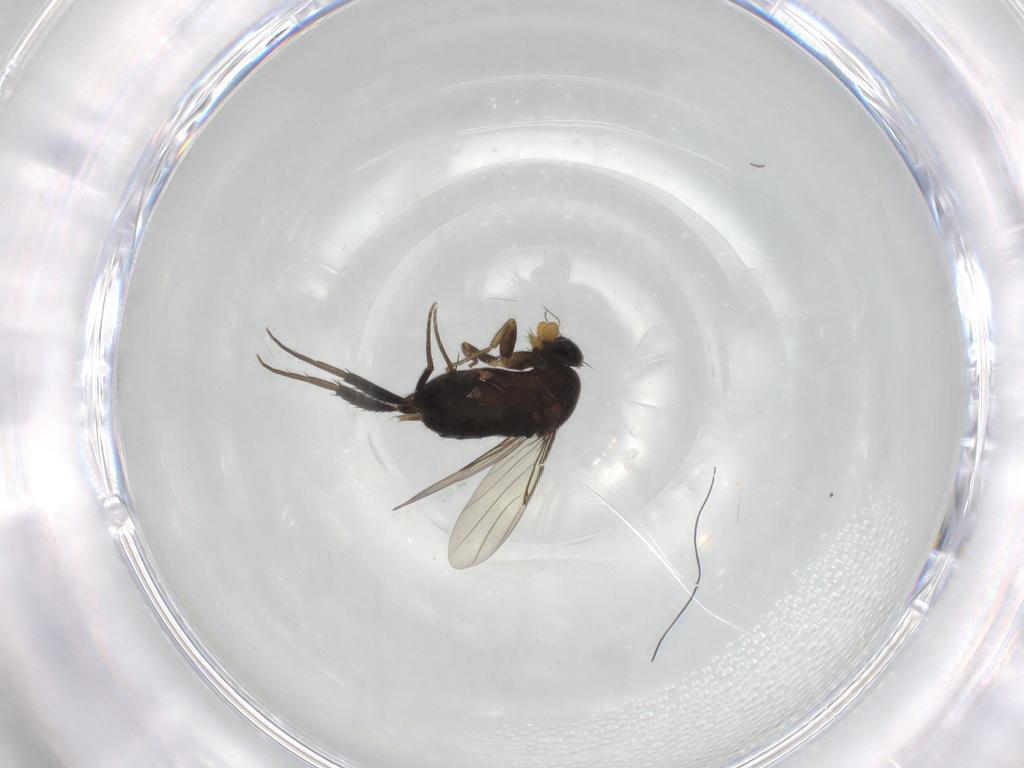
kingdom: Animalia
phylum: Arthropoda
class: Insecta
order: Diptera
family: Phoridae
